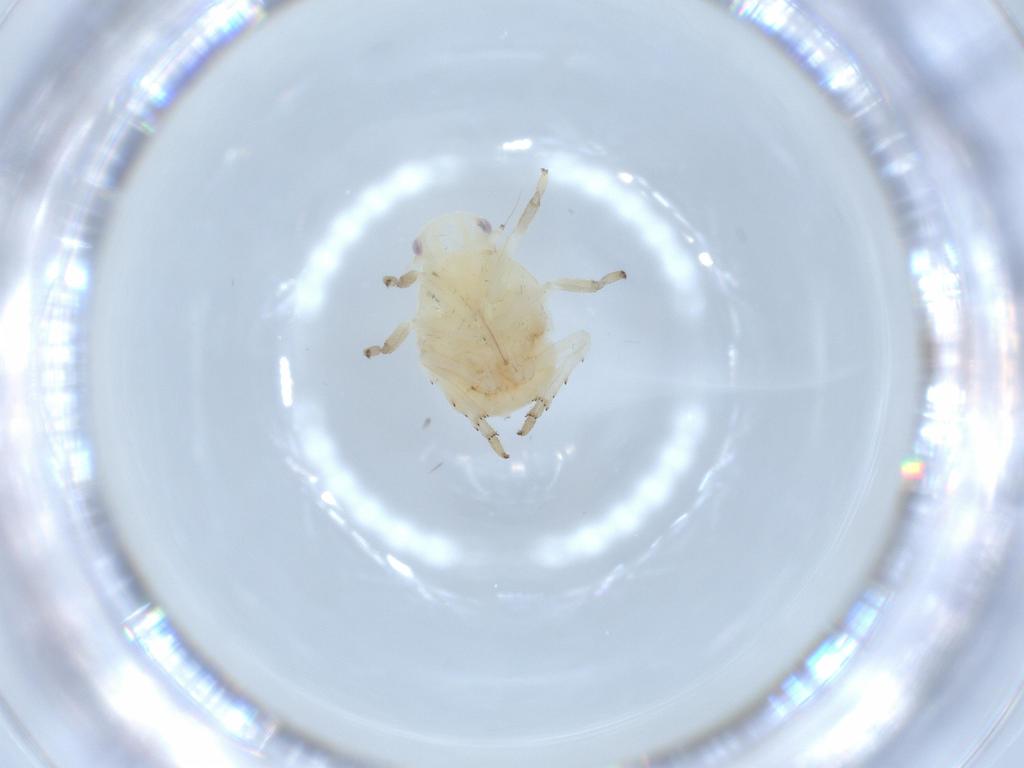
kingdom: Animalia
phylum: Arthropoda
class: Insecta
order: Hemiptera
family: Flatidae
